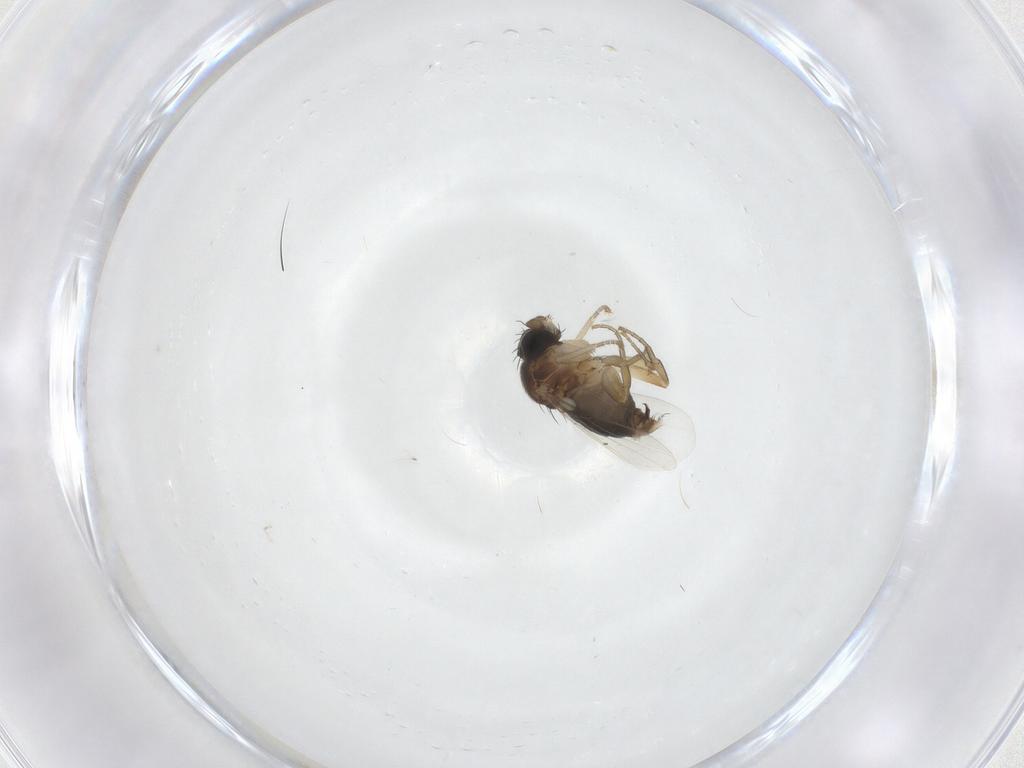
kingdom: Animalia
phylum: Arthropoda
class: Insecta
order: Diptera
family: Phoridae
